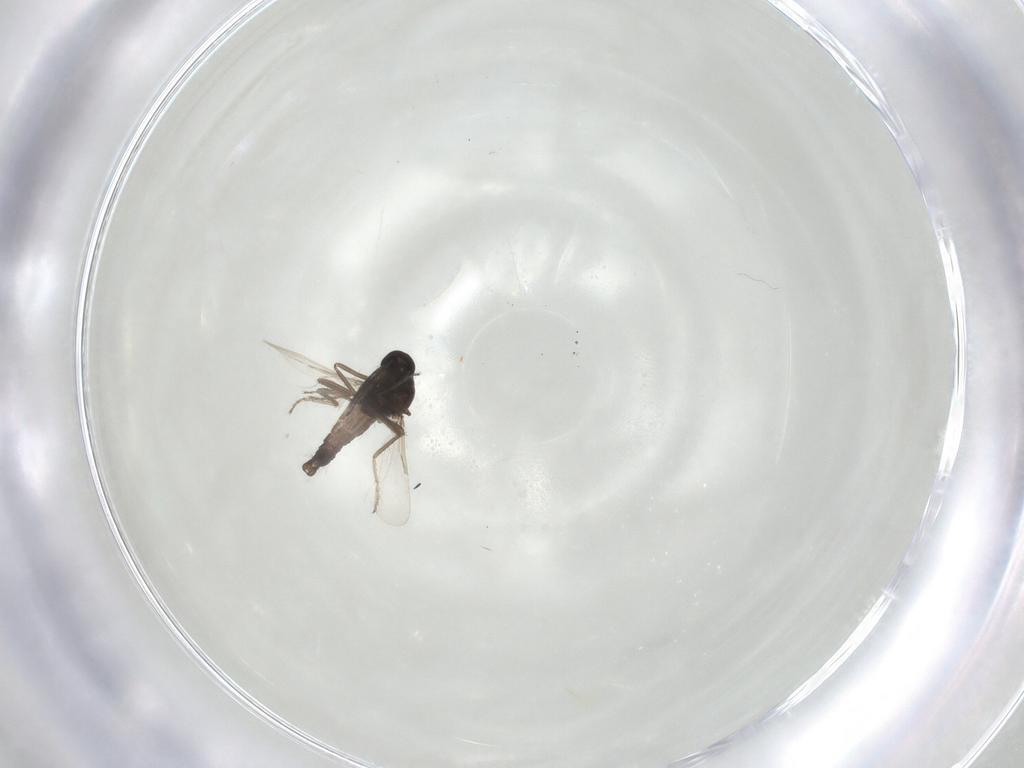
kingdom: Animalia
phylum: Arthropoda
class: Insecta
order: Diptera
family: Ceratopogonidae
